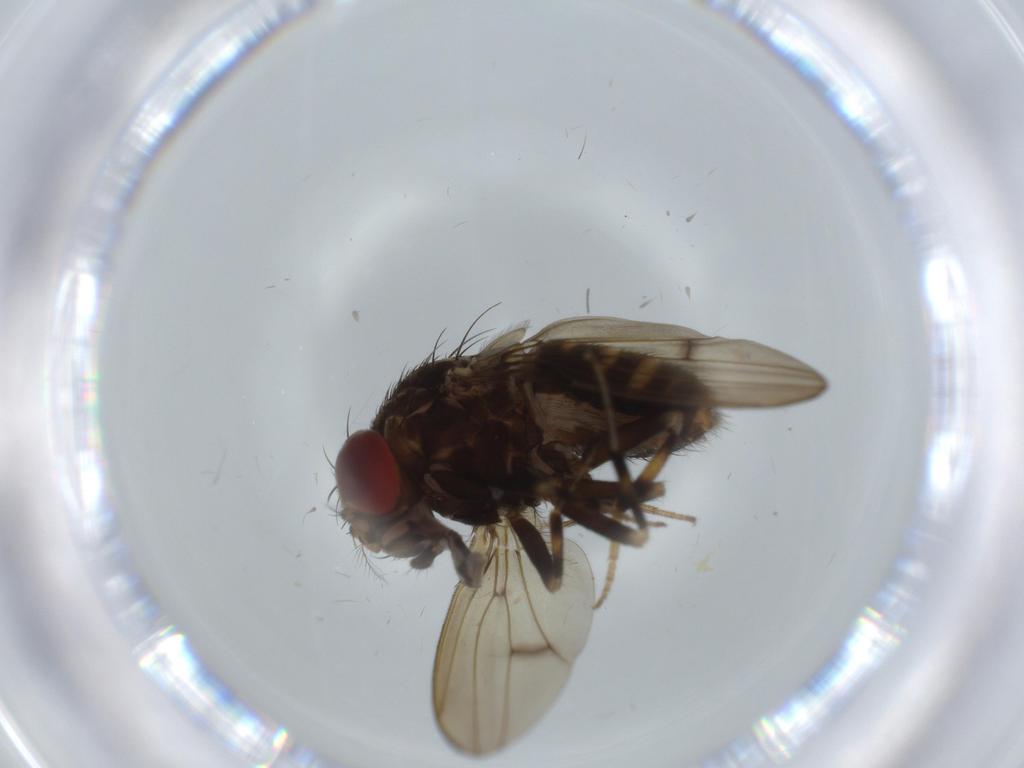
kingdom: Animalia
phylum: Arthropoda
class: Insecta
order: Diptera
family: Drosophilidae
